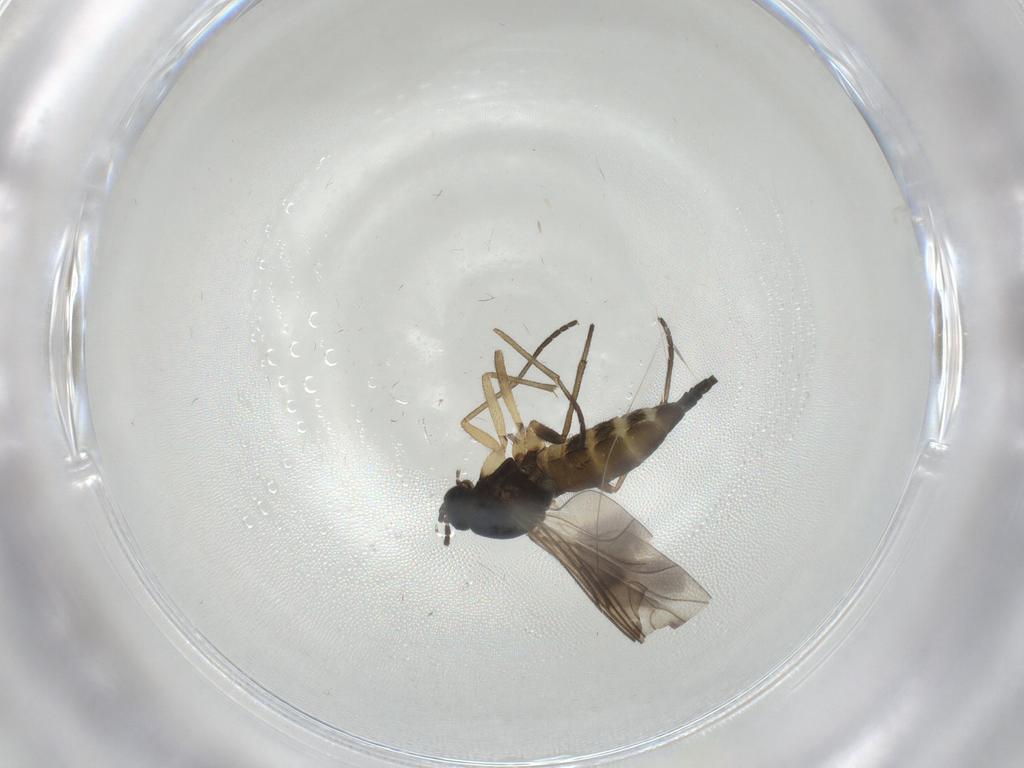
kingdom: Animalia
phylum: Arthropoda
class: Insecta
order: Diptera
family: Sciaridae
